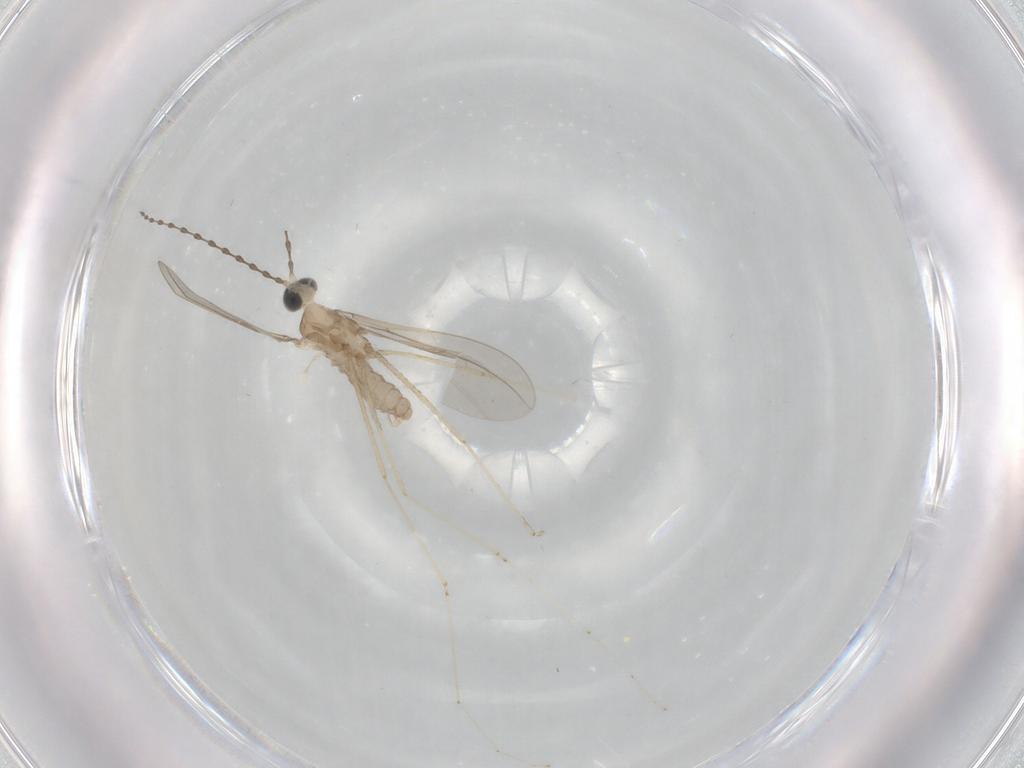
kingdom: Animalia
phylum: Arthropoda
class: Insecta
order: Diptera
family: Cecidomyiidae
